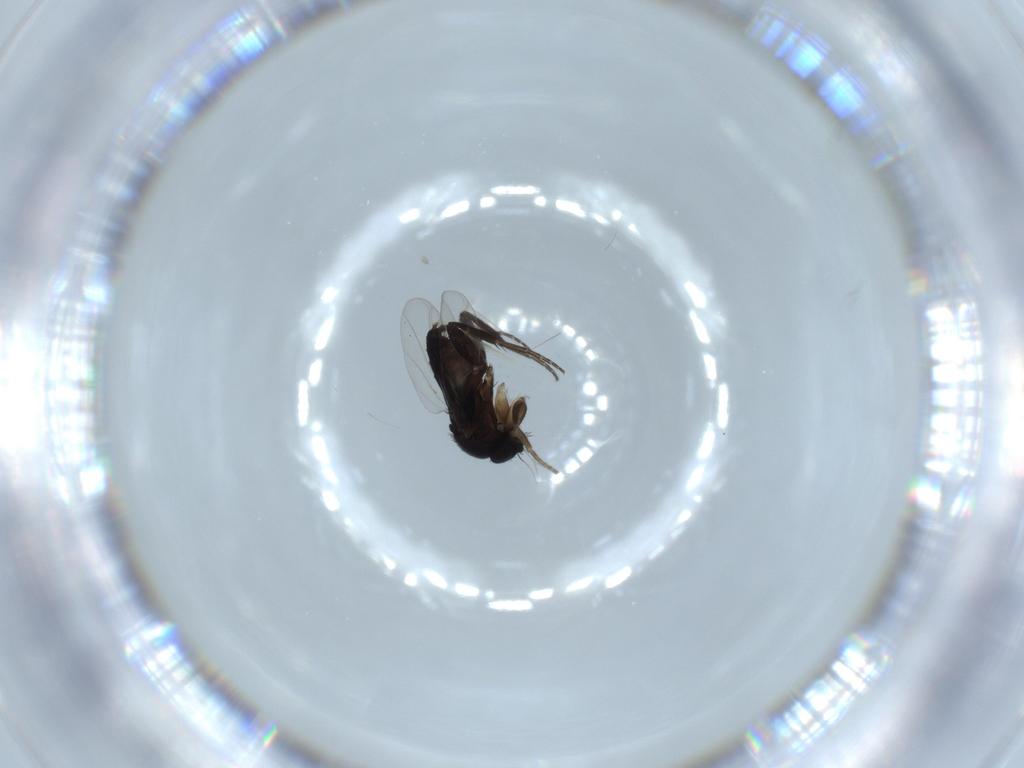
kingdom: Animalia
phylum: Arthropoda
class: Insecta
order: Diptera
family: Phoridae
